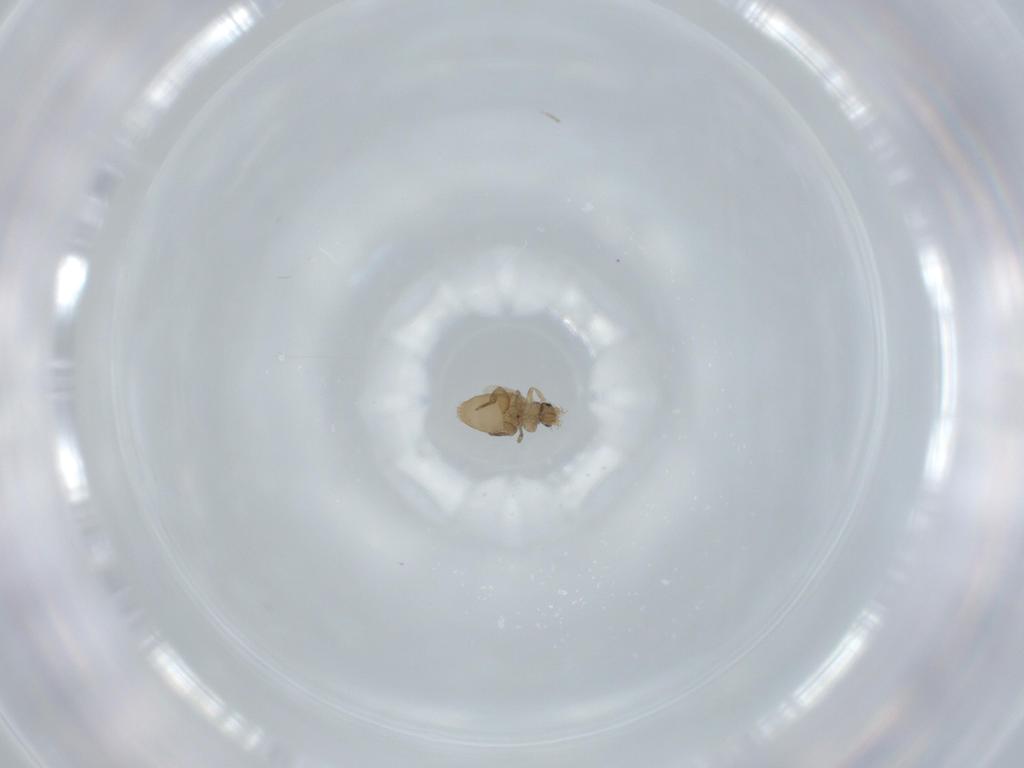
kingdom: Animalia
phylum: Arthropoda
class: Insecta
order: Diptera
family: Phoridae
